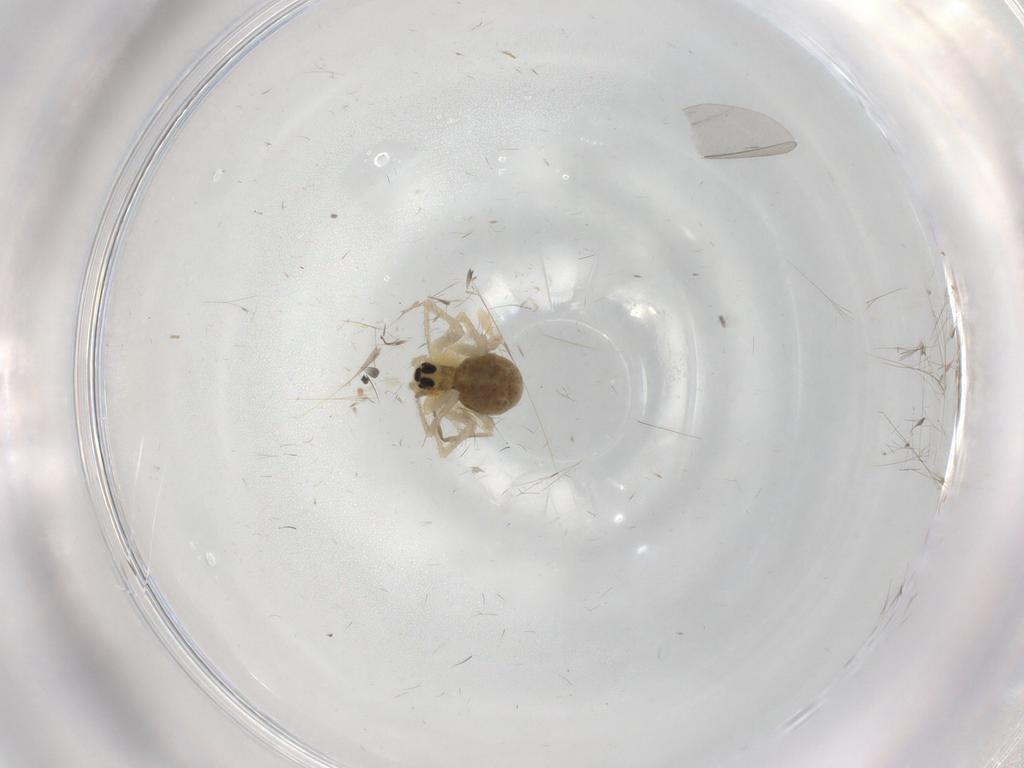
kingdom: Animalia
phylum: Arthropoda
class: Arachnida
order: Araneae
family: Linyphiidae
